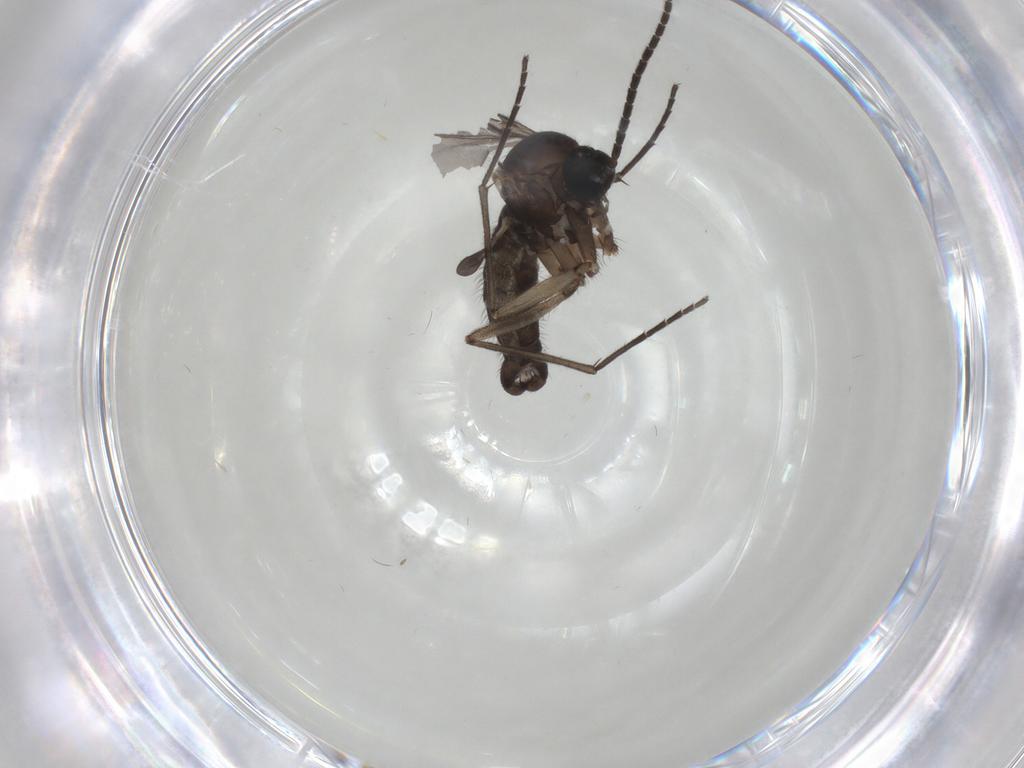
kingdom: Animalia
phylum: Arthropoda
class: Insecta
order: Diptera
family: Sciaridae
